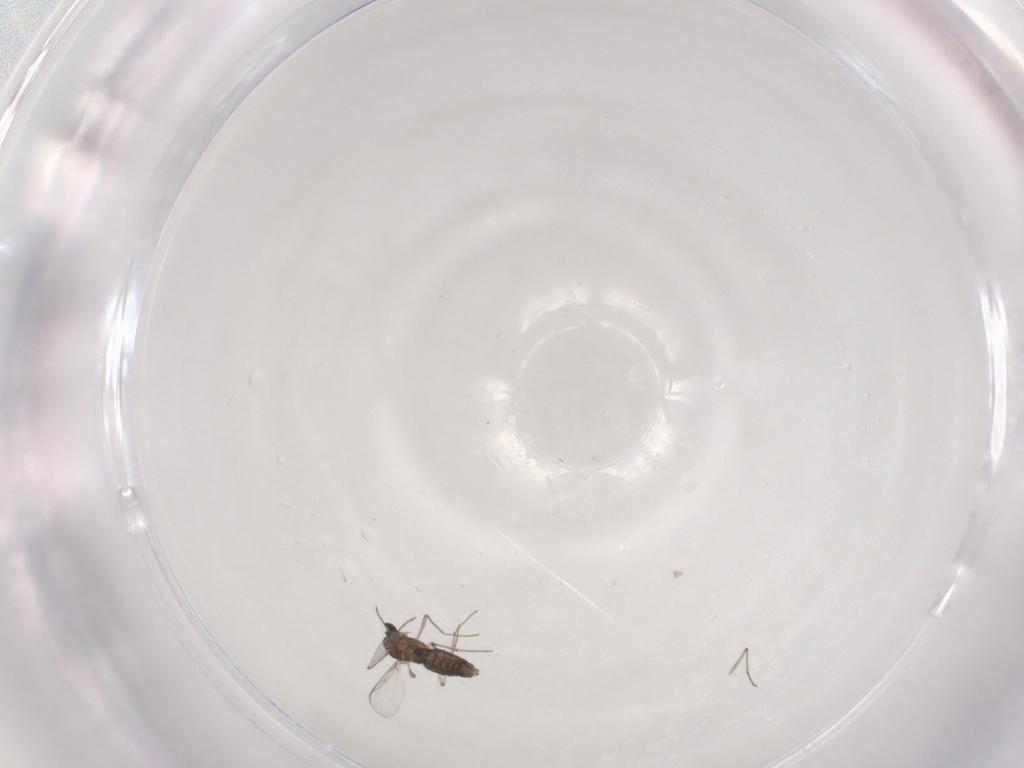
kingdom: Animalia
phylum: Arthropoda
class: Insecta
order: Diptera
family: Chironomidae
